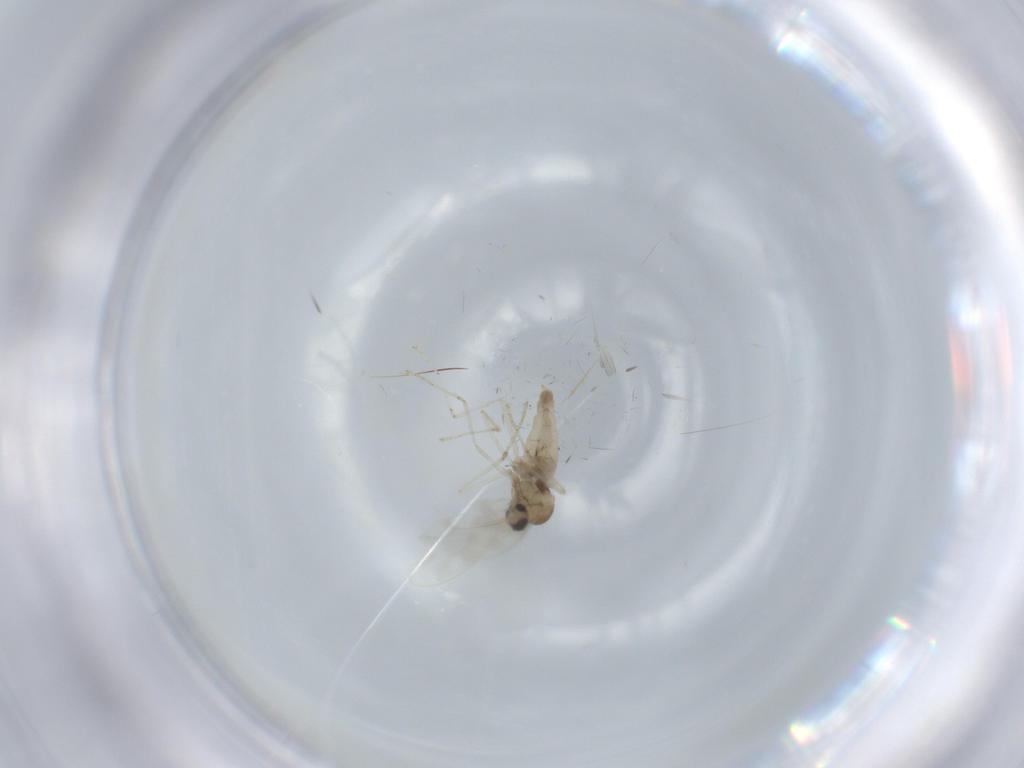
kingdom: Animalia
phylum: Arthropoda
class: Insecta
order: Diptera
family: Cecidomyiidae
